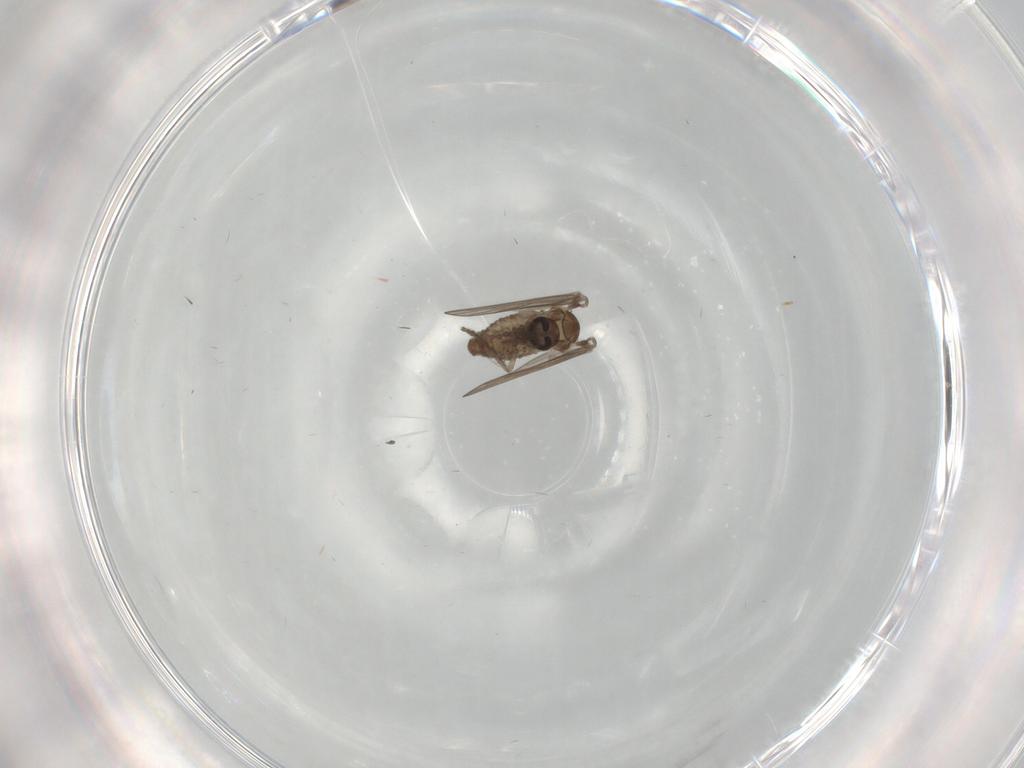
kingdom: Animalia
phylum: Arthropoda
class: Insecta
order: Diptera
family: Psychodidae
